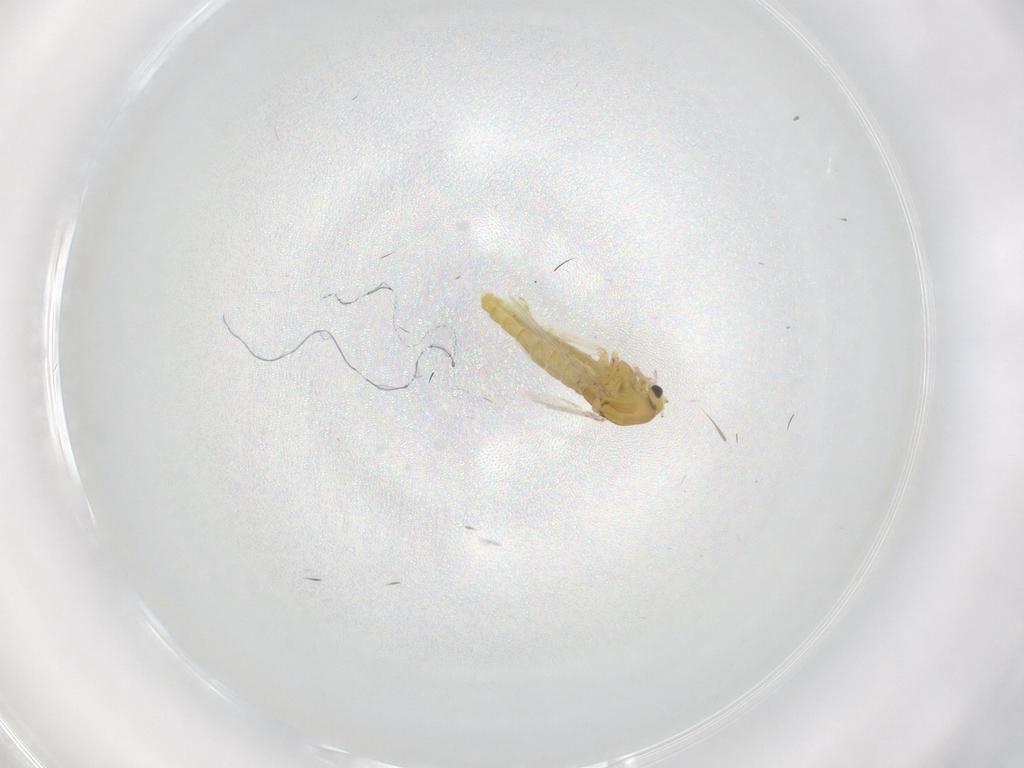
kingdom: Animalia
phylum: Arthropoda
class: Insecta
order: Diptera
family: Chironomidae
